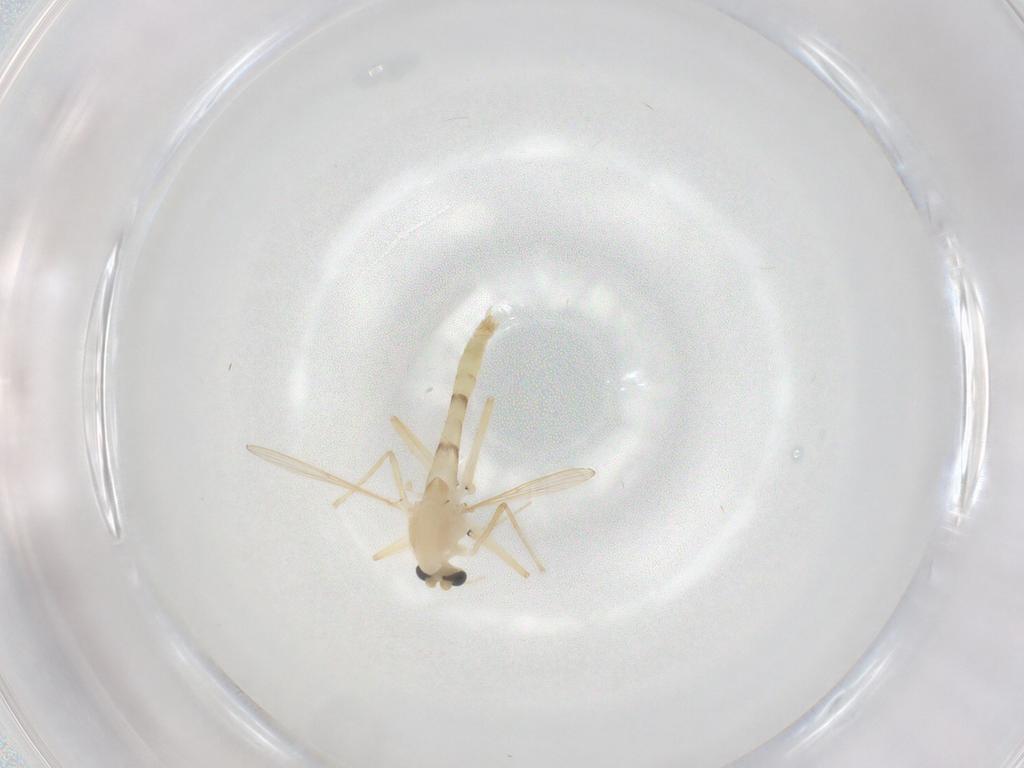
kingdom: Animalia
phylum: Arthropoda
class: Insecta
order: Diptera
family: Chironomidae
